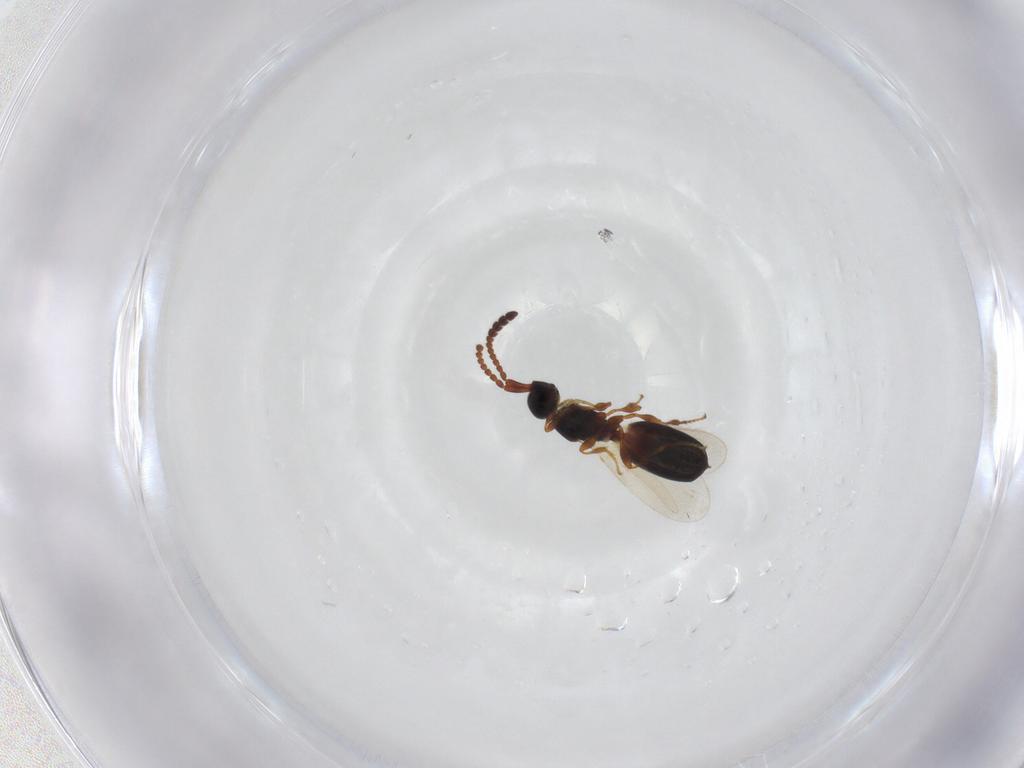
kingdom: Animalia
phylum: Arthropoda
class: Insecta
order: Hymenoptera
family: Diapriidae
